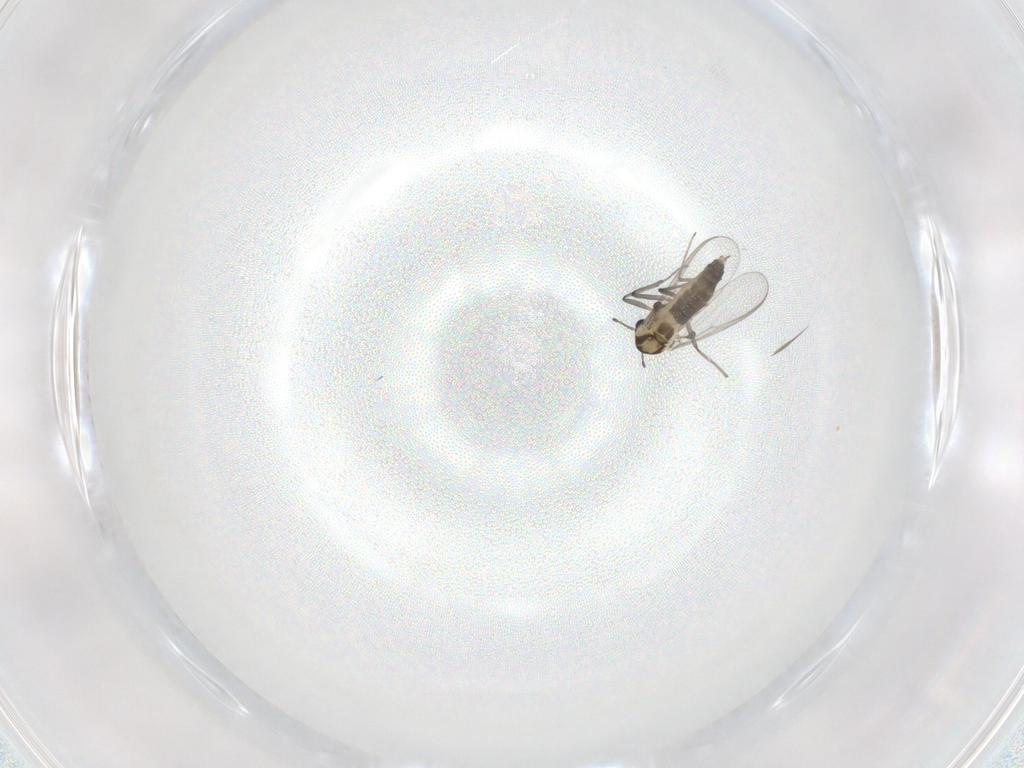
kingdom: Animalia
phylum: Arthropoda
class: Insecta
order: Diptera
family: Chironomidae
